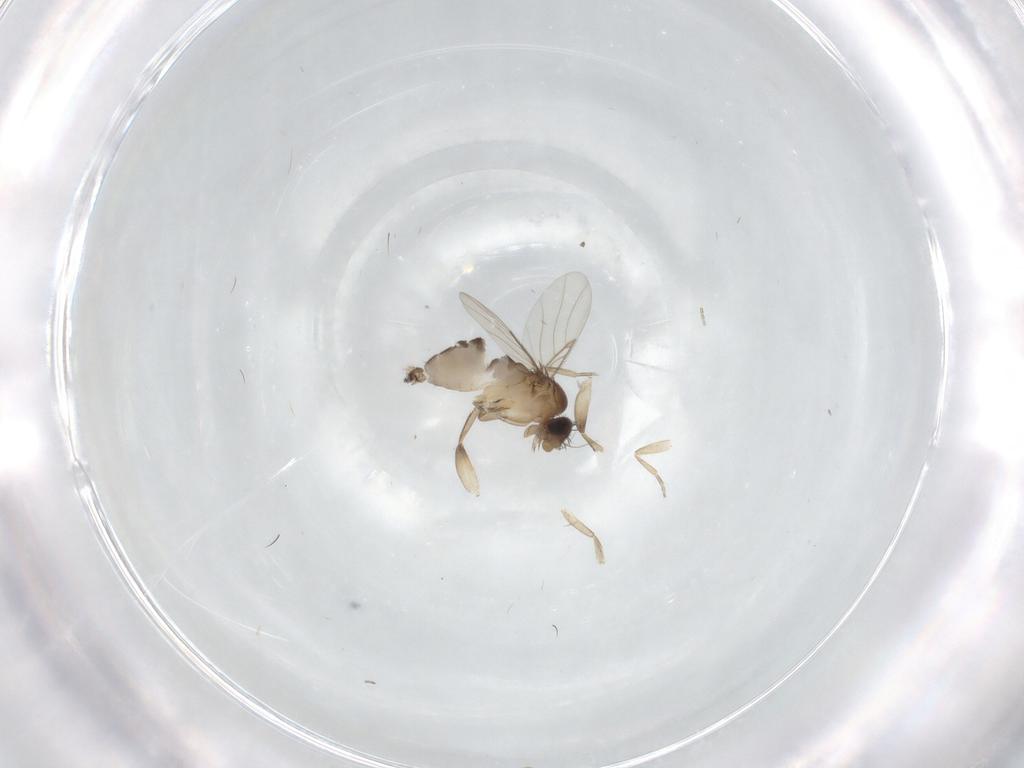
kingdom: Animalia
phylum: Arthropoda
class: Insecta
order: Diptera
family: Phoridae
